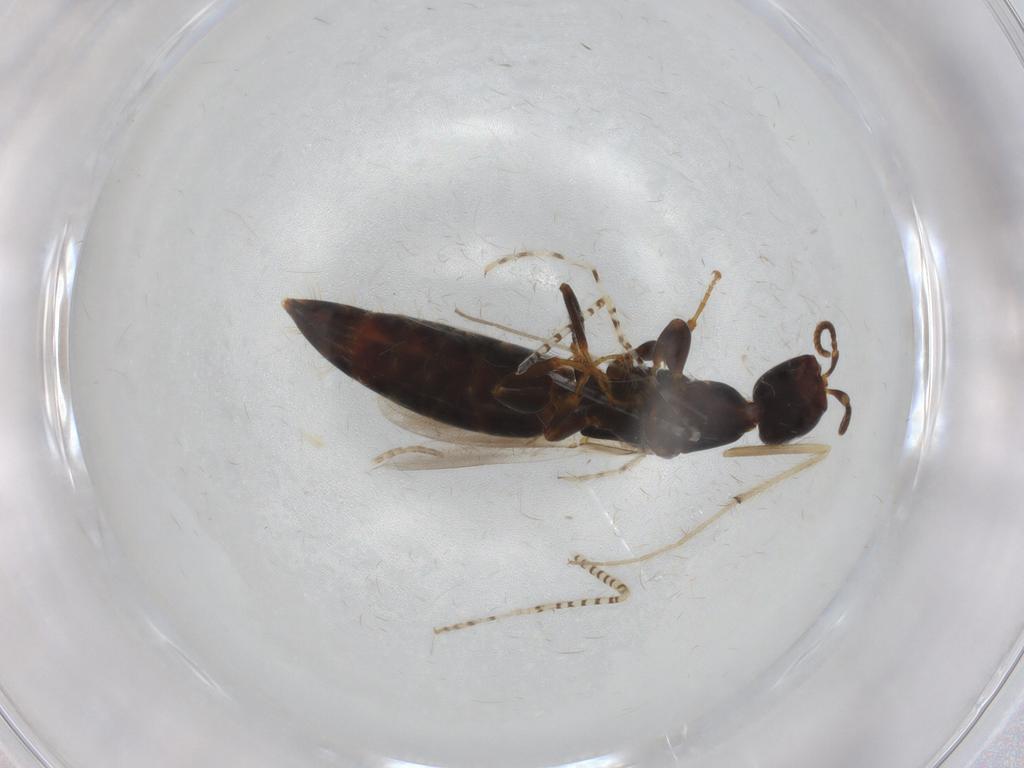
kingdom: Animalia
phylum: Arthropoda
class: Insecta
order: Hymenoptera
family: Bethylidae
